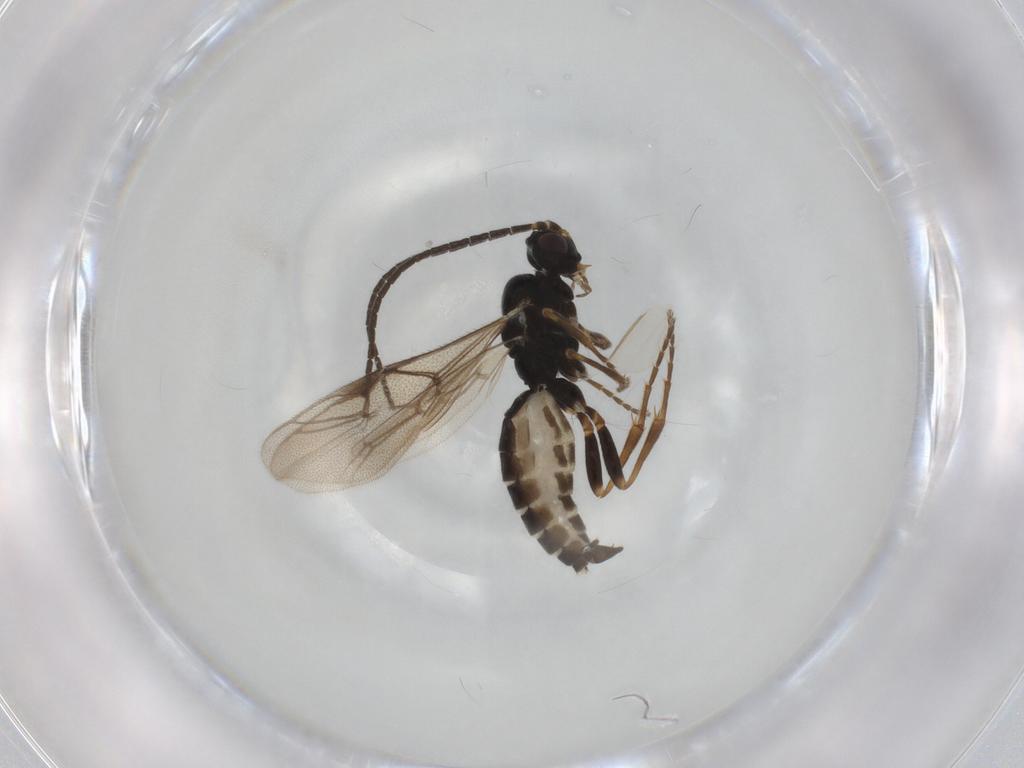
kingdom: Animalia
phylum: Arthropoda
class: Insecta
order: Hymenoptera
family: Ichneumonidae
